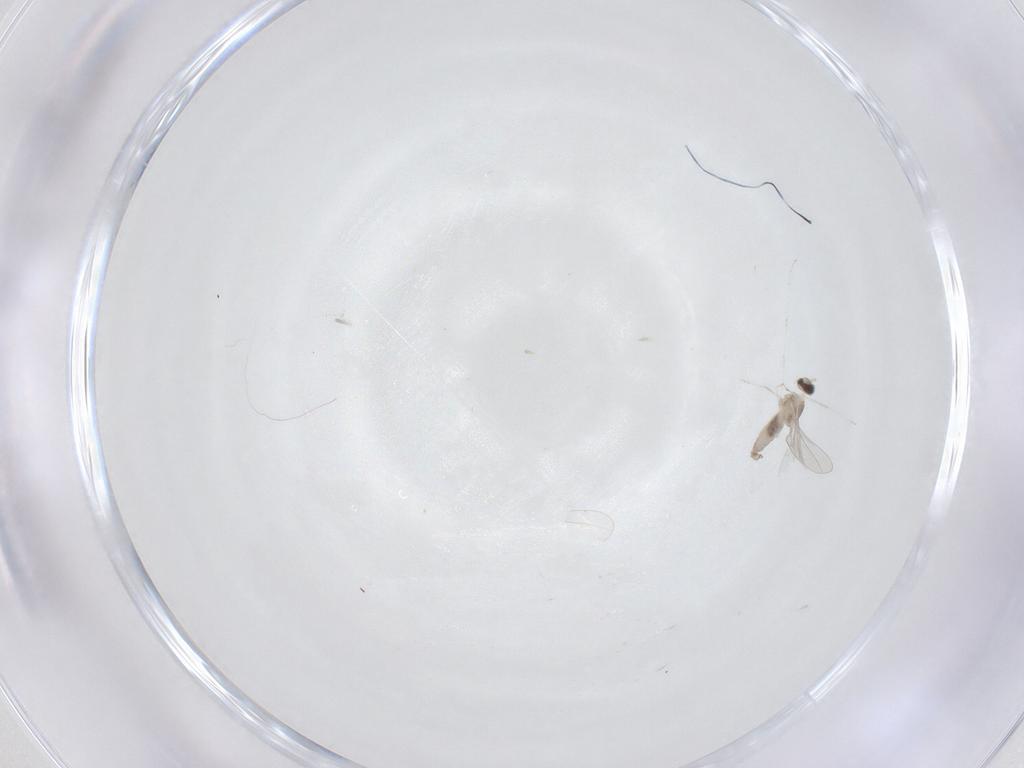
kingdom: Animalia
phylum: Arthropoda
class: Insecta
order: Diptera
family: Cecidomyiidae
